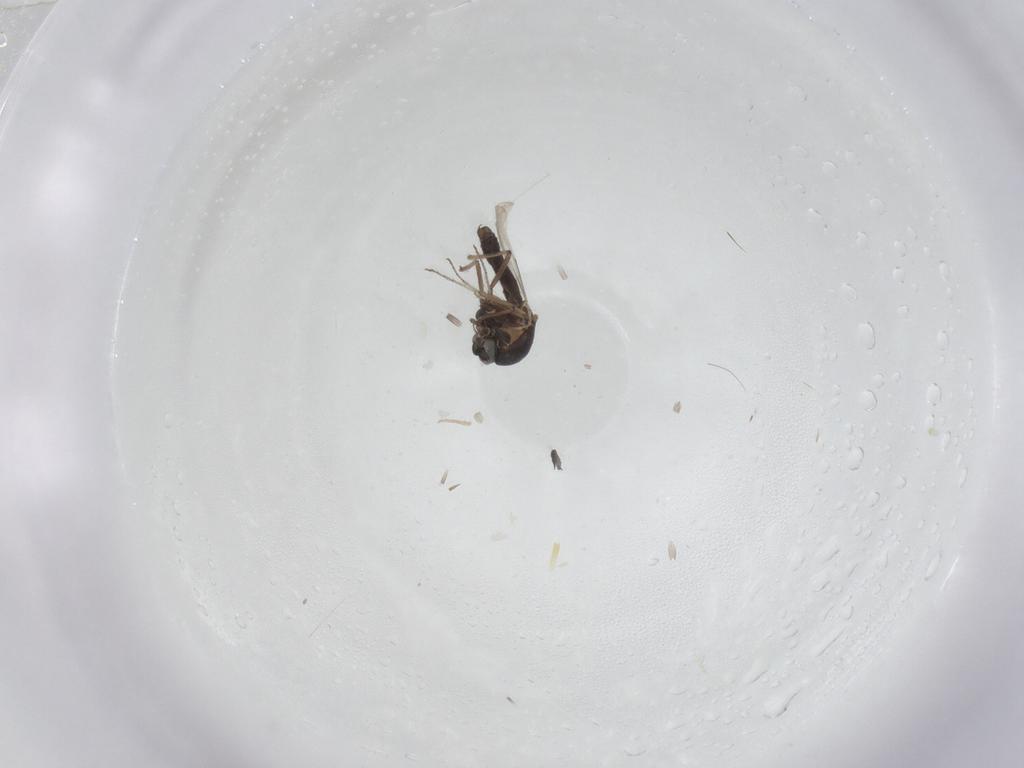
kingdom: Animalia
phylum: Arthropoda
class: Insecta
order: Diptera
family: Ceratopogonidae
